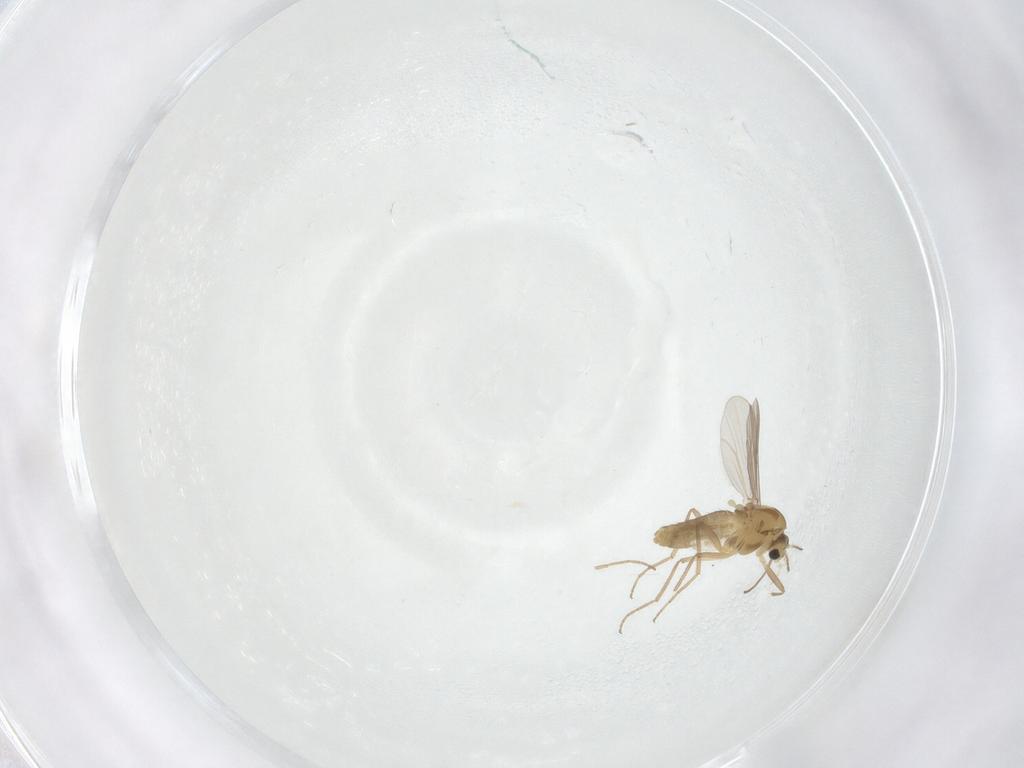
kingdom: Animalia
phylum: Arthropoda
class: Insecta
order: Diptera
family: Chironomidae
